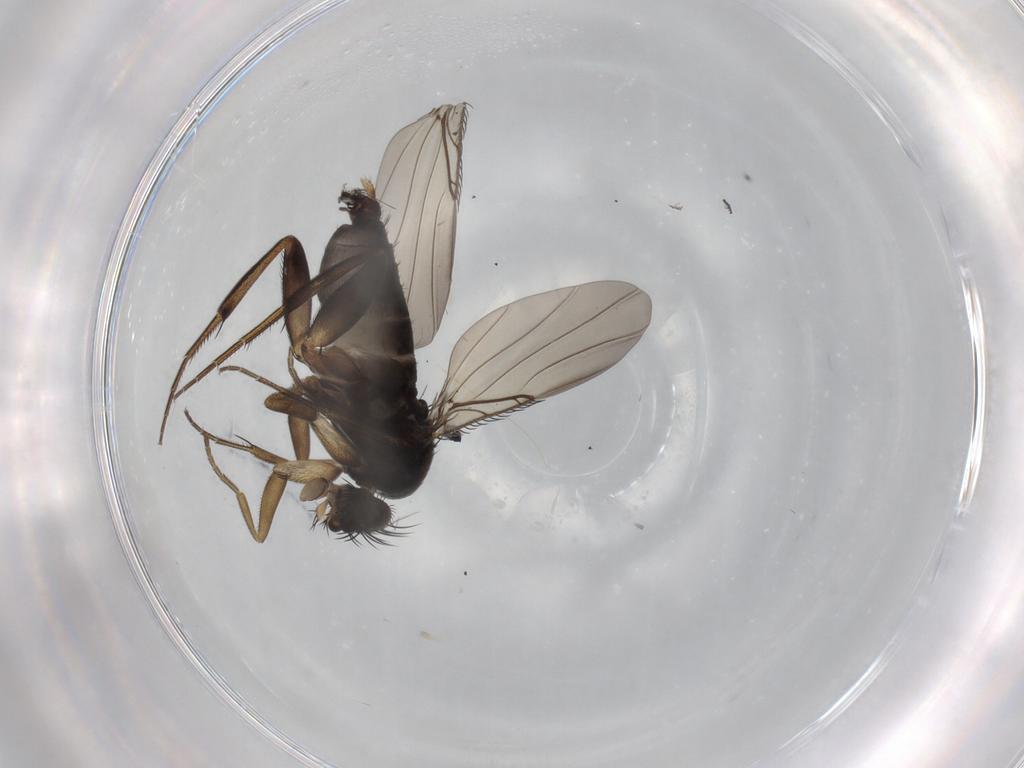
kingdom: Animalia
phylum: Arthropoda
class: Insecta
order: Diptera
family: Phoridae
